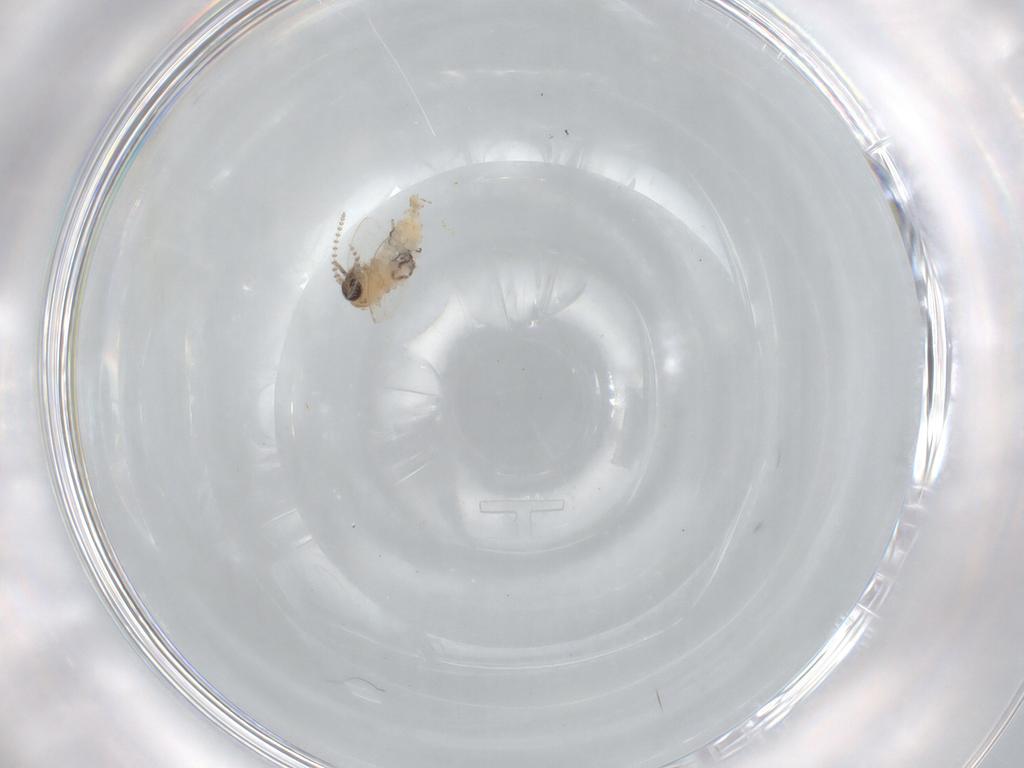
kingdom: Animalia
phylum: Arthropoda
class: Insecta
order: Diptera
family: Psychodidae
